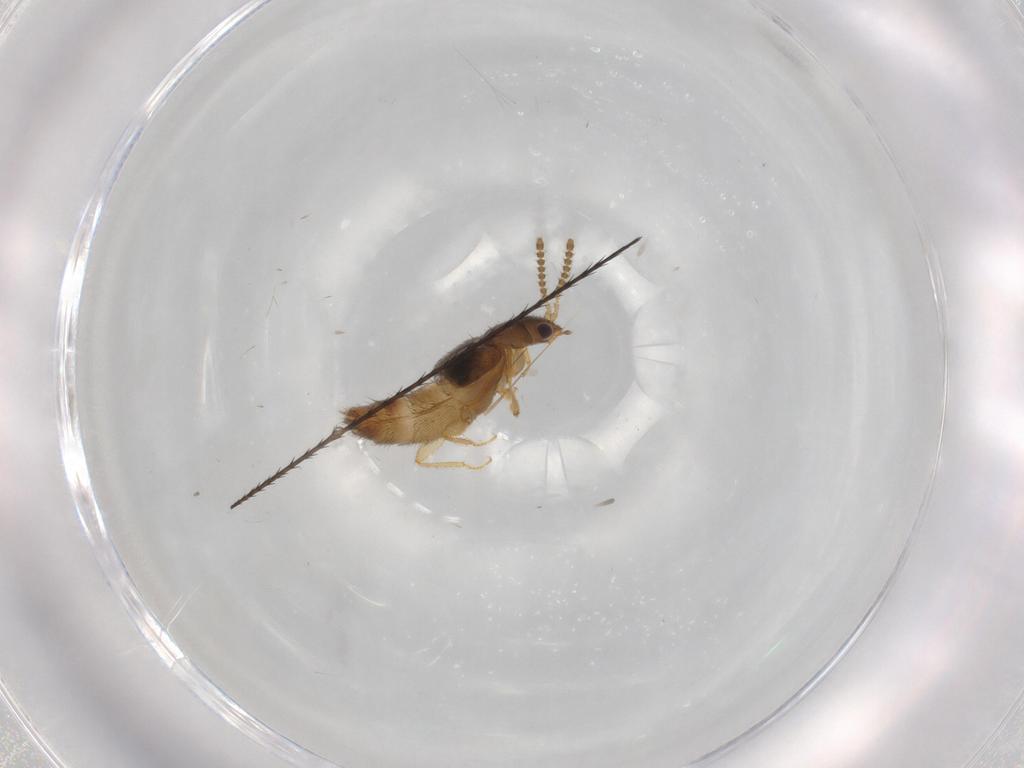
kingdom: Animalia
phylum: Arthropoda
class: Insecta
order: Coleoptera
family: Staphylinidae
